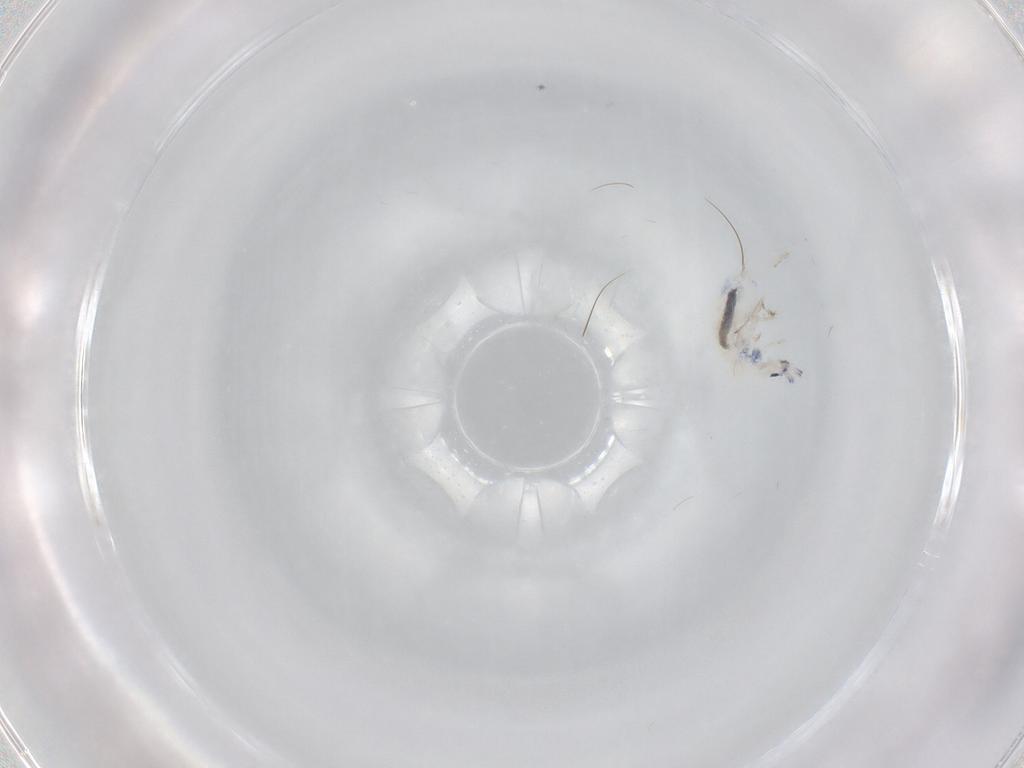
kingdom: Animalia
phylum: Arthropoda
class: Collembola
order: Entomobryomorpha
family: Entomobryidae
